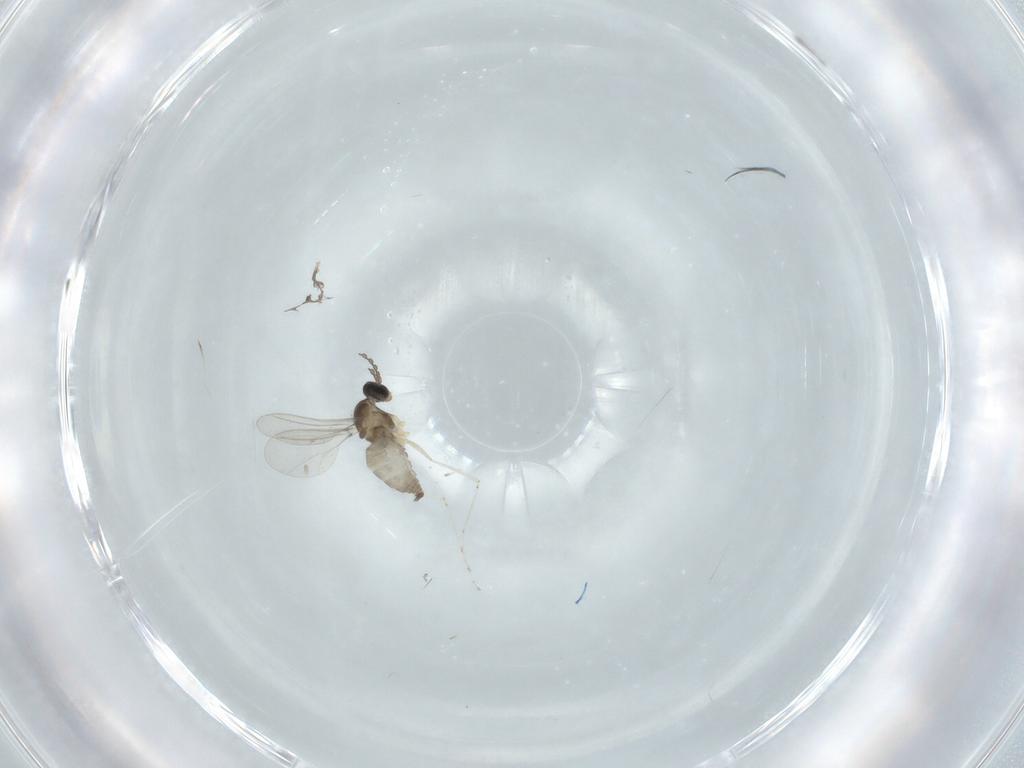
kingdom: Animalia
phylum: Arthropoda
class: Insecta
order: Diptera
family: Cecidomyiidae
